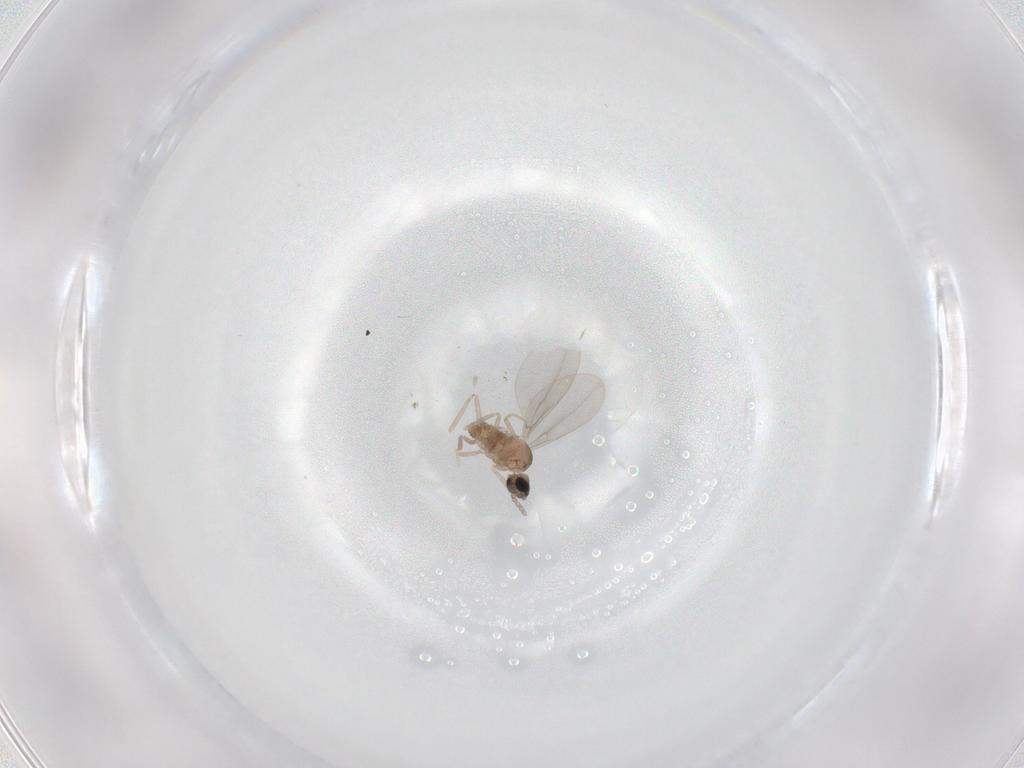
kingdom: Animalia
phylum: Arthropoda
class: Insecta
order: Diptera
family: Cecidomyiidae
